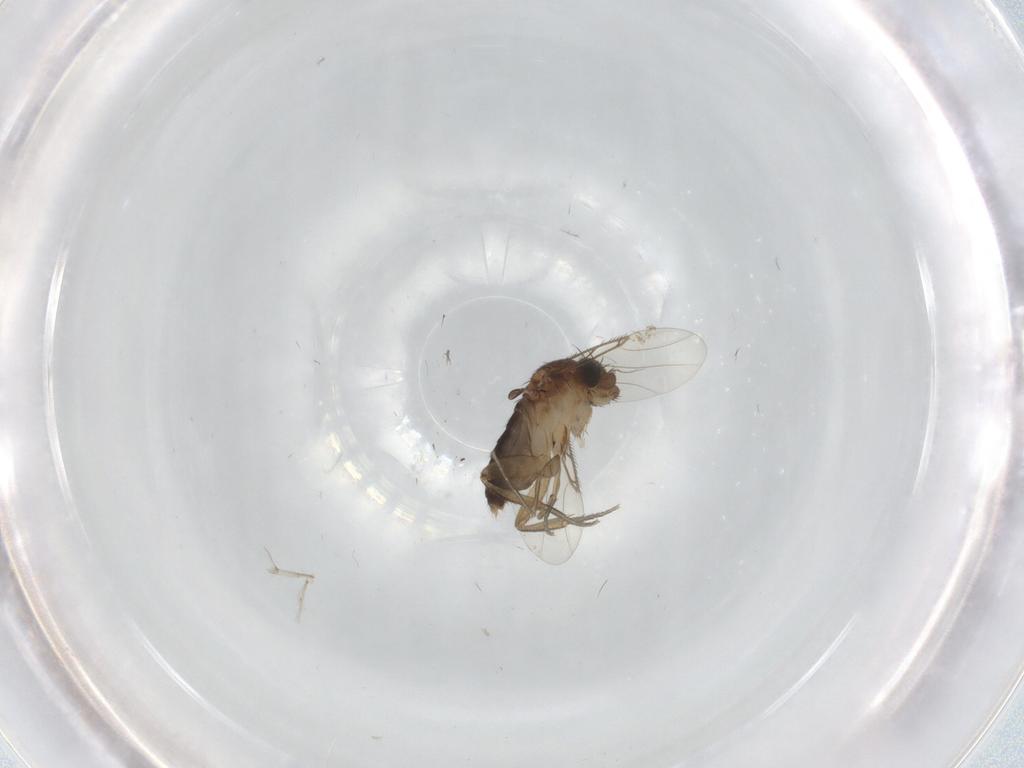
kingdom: Animalia
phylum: Arthropoda
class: Insecta
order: Diptera
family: Phoridae
